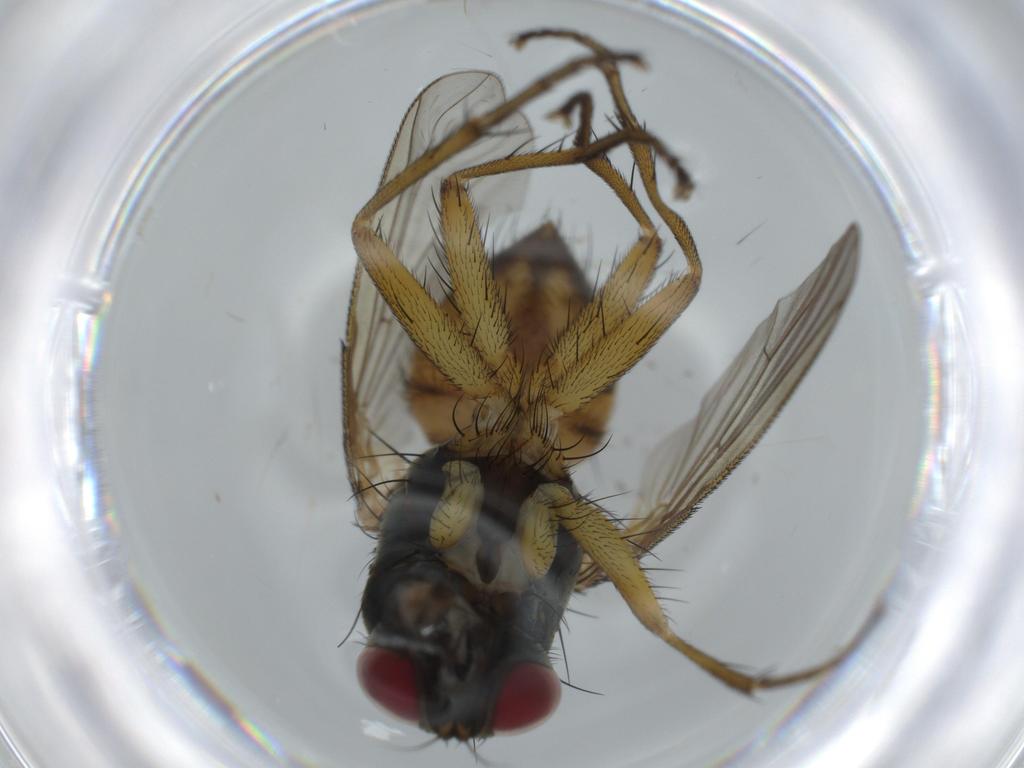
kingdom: Animalia
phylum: Arthropoda
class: Insecta
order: Diptera
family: Muscidae
